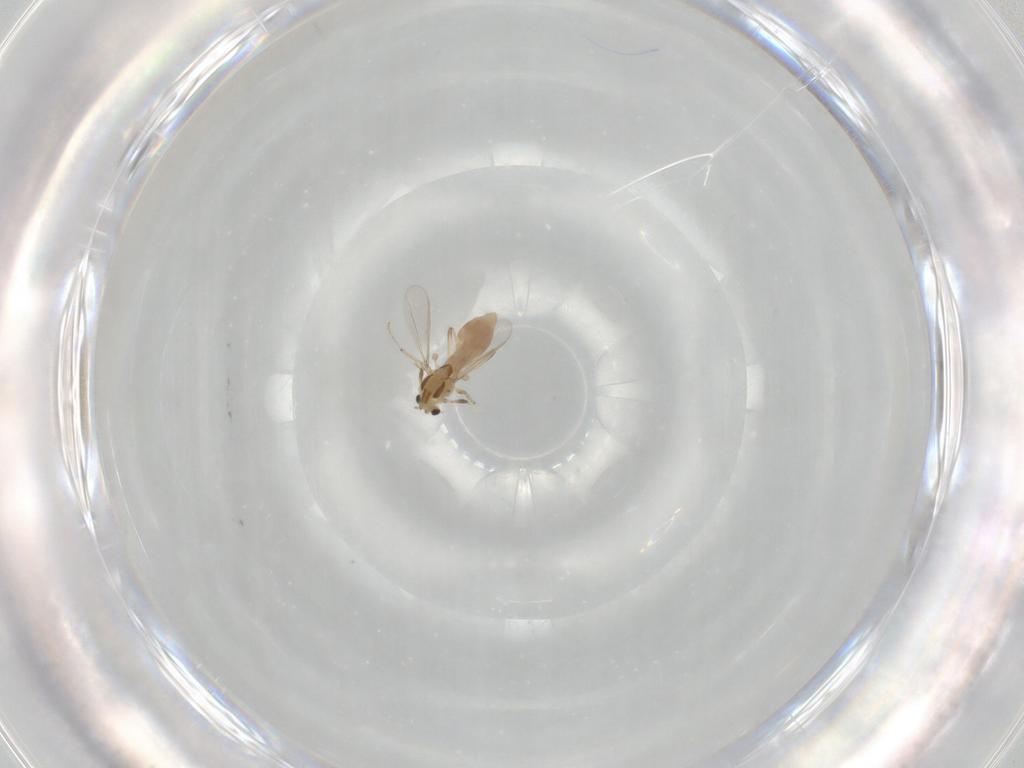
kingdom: Animalia
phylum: Arthropoda
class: Insecta
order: Diptera
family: Chironomidae
